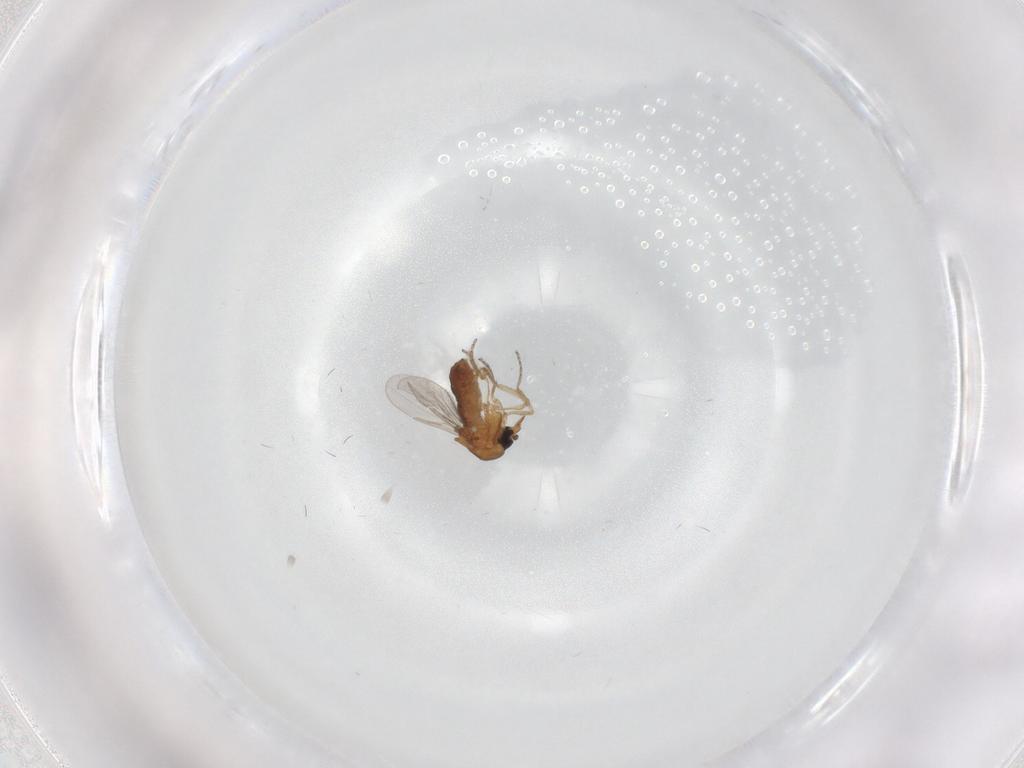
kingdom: Animalia
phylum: Arthropoda
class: Insecta
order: Diptera
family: Ceratopogonidae
